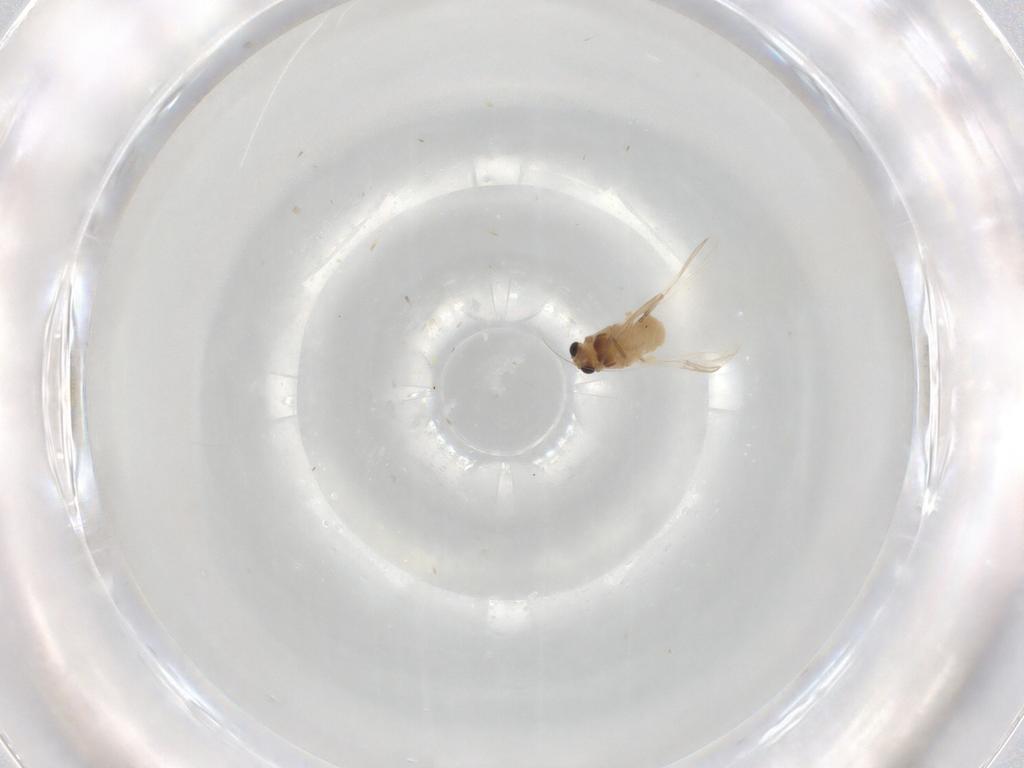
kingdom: Animalia
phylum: Arthropoda
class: Insecta
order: Diptera
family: Chironomidae
